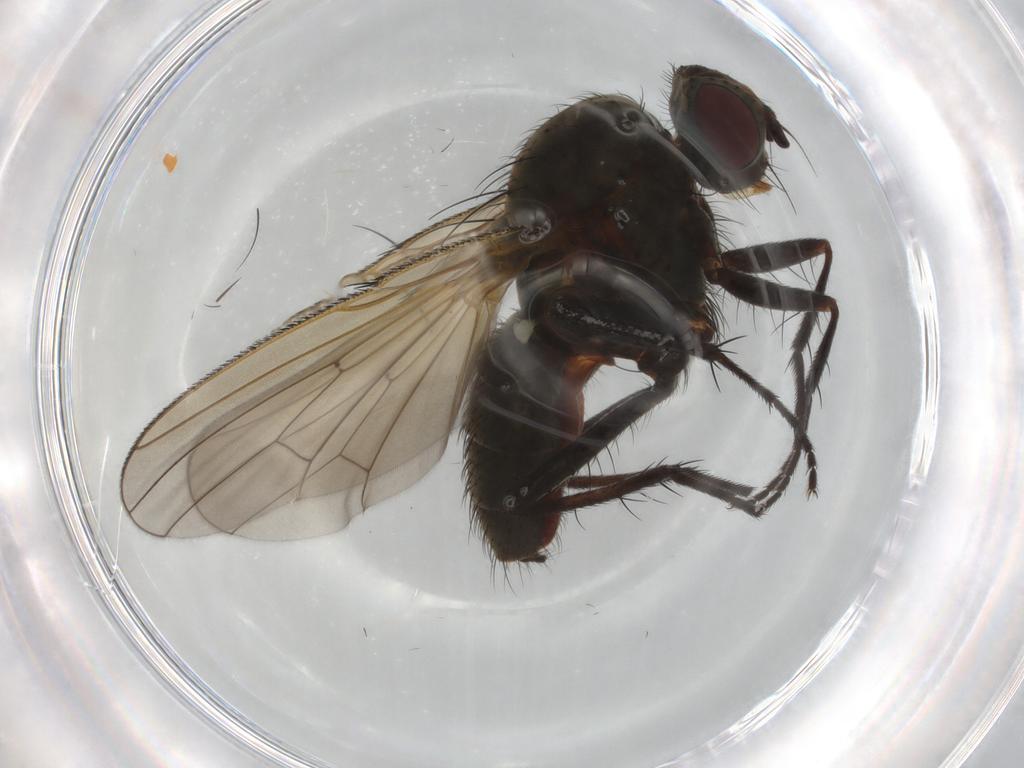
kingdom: Animalia
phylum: Arthropoda
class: Insecta
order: Diptera
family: Anthomyiidae
